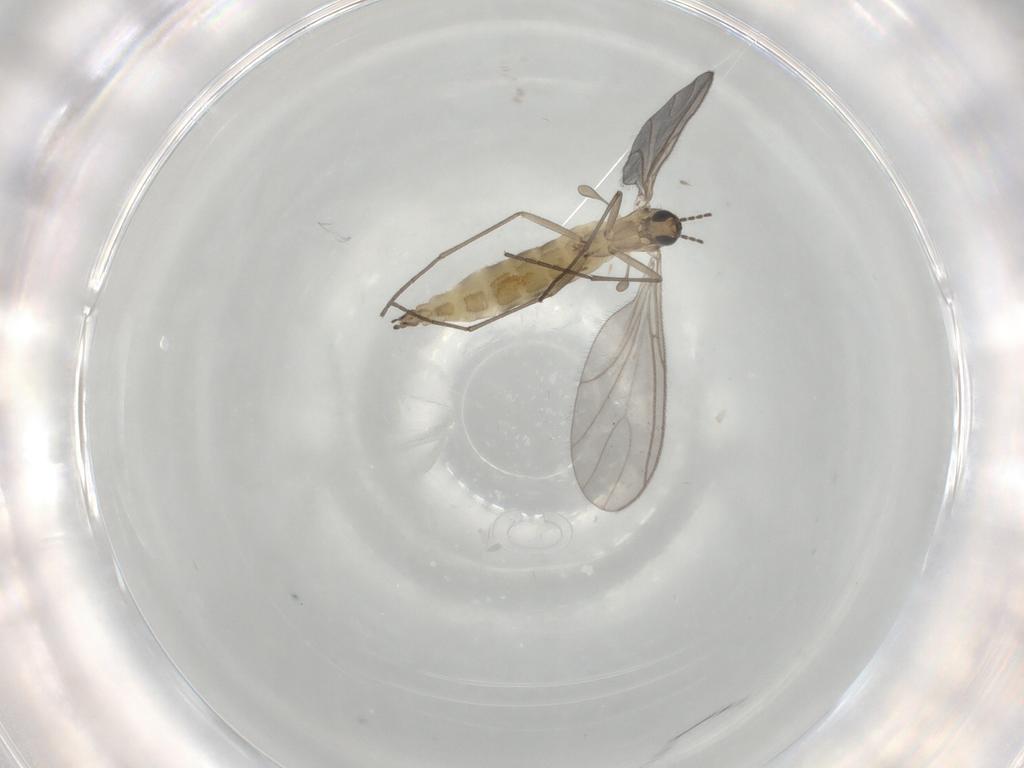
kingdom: Animalia
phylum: Arthropoda
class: Insecta
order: Diptera
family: Sciaridae
